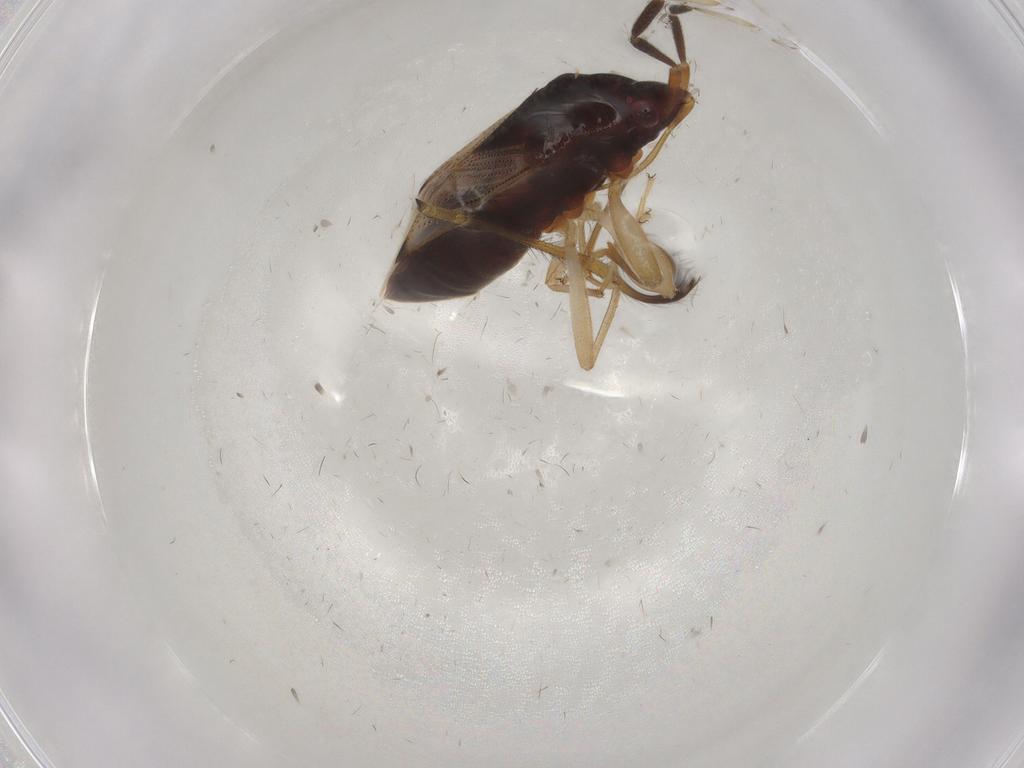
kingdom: Animalia
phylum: Arthropoda
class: Insecta
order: Hemiptera
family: Rhyparochromidae
